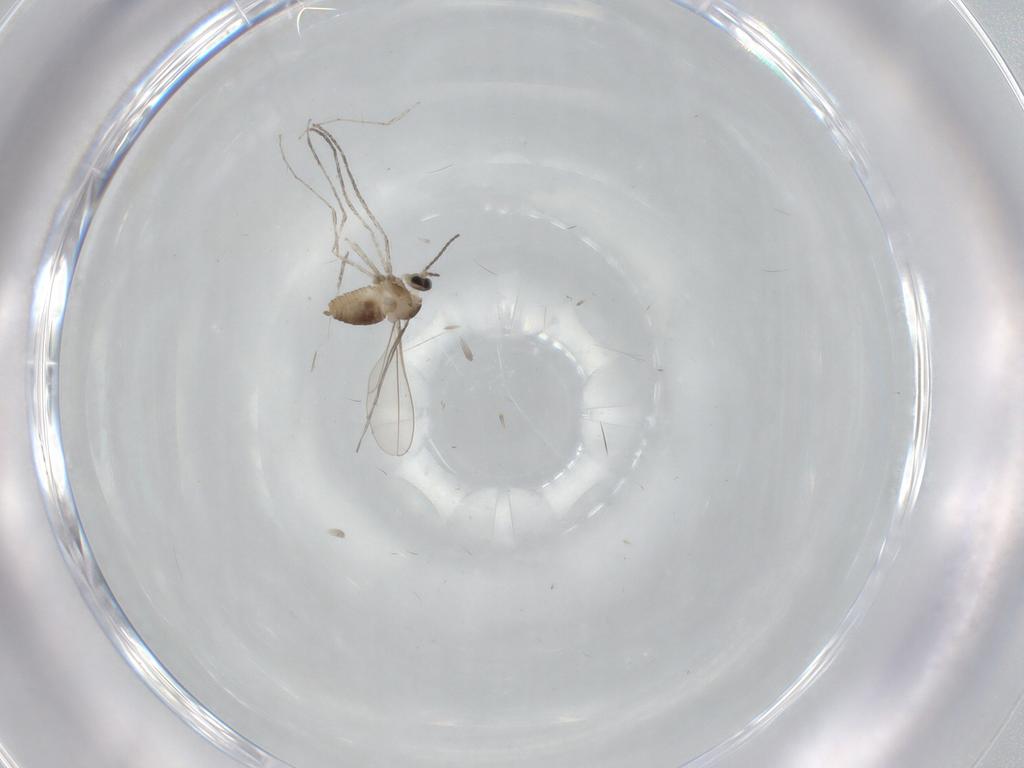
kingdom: Animalia
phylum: Arthropoda
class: Insecta
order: Diptera
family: Cecidomyiidae
